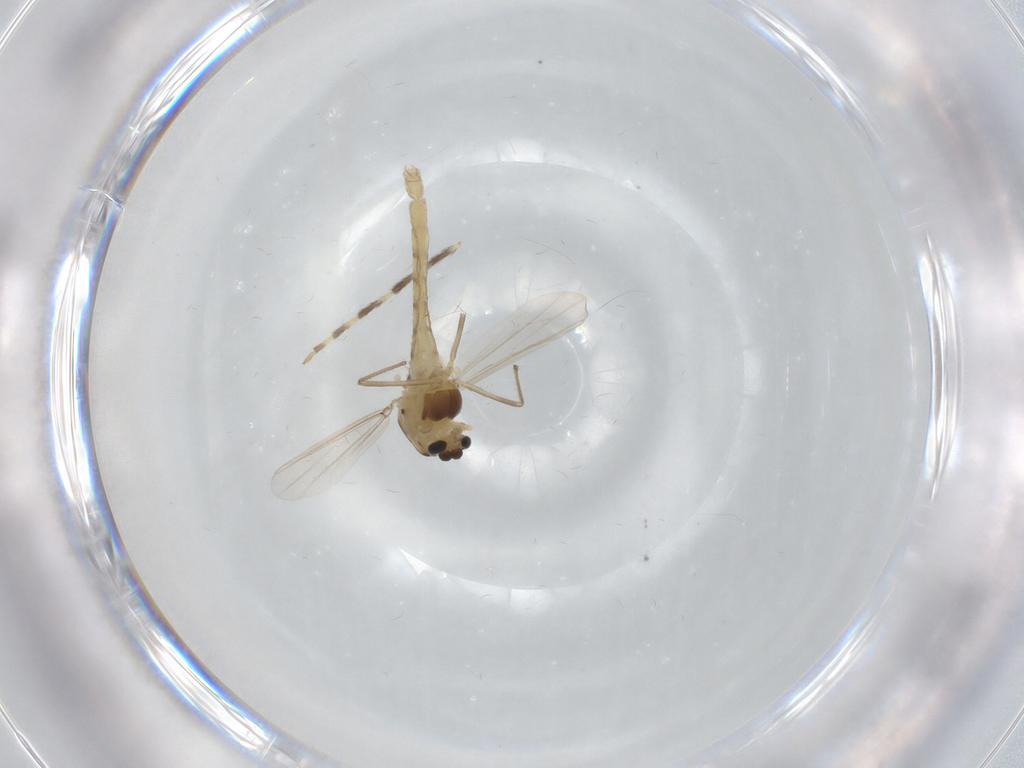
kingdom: Animalia
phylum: Arthropoda
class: Insecta
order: Diptera
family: Chironomidae
